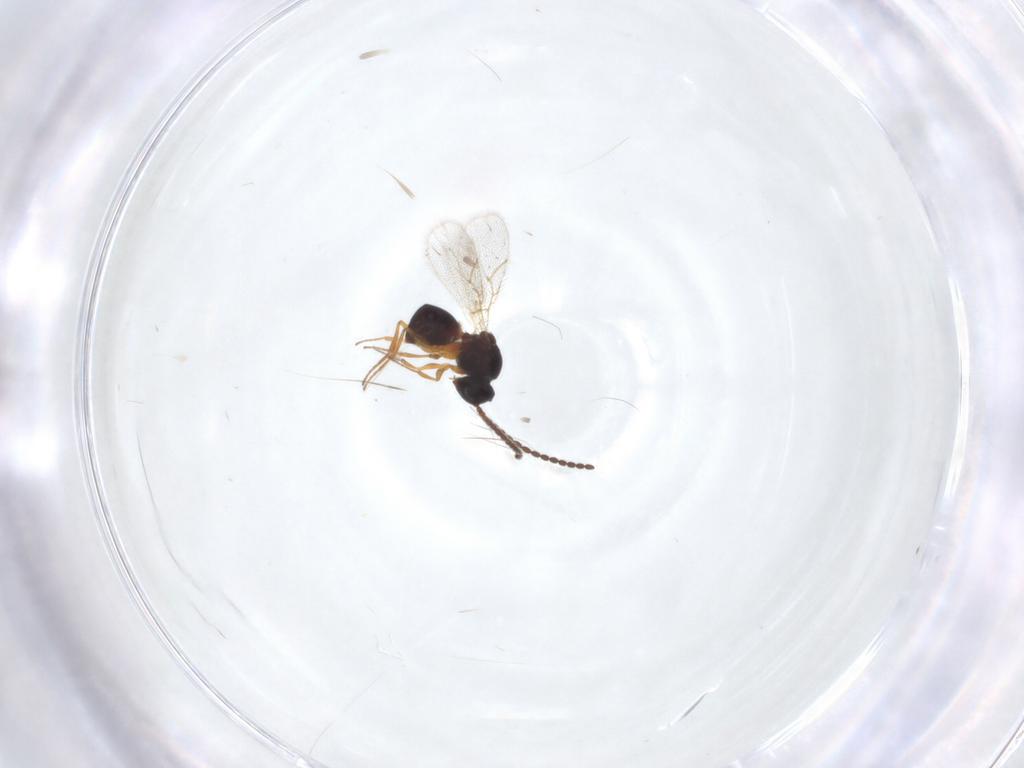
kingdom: Animalia
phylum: Arthropoda
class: Insecta
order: Hymenoptera
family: Figitidae
